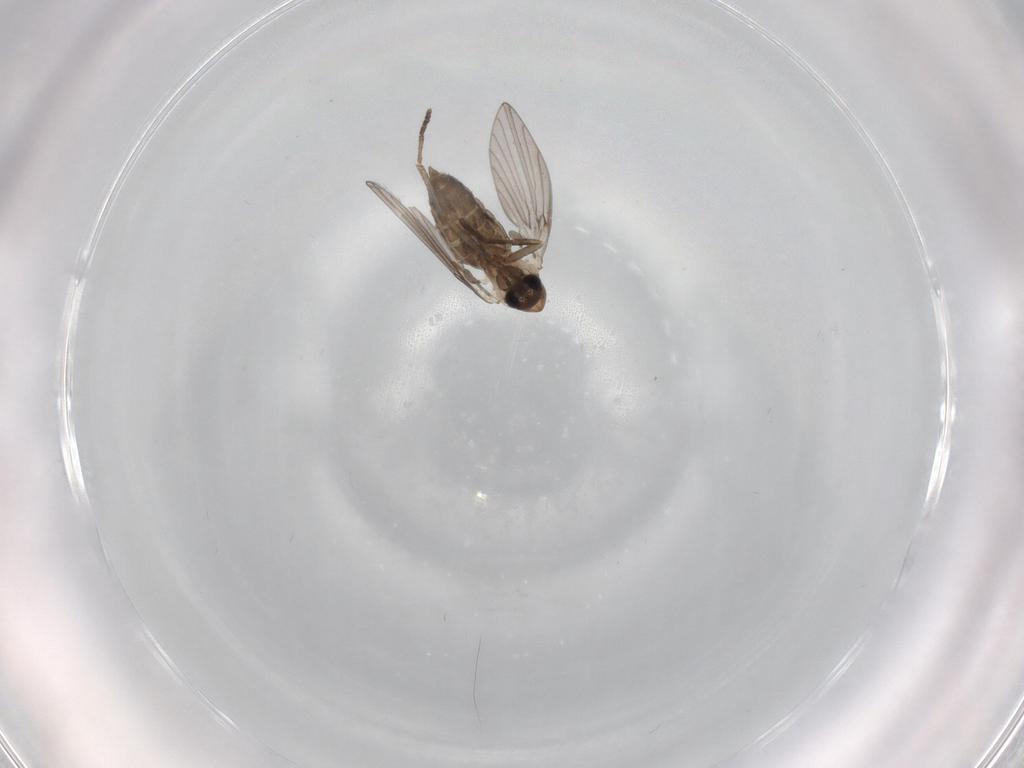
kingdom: Animalia
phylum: Arthropoda
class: Insecta
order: Diptera
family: Psychodidae
